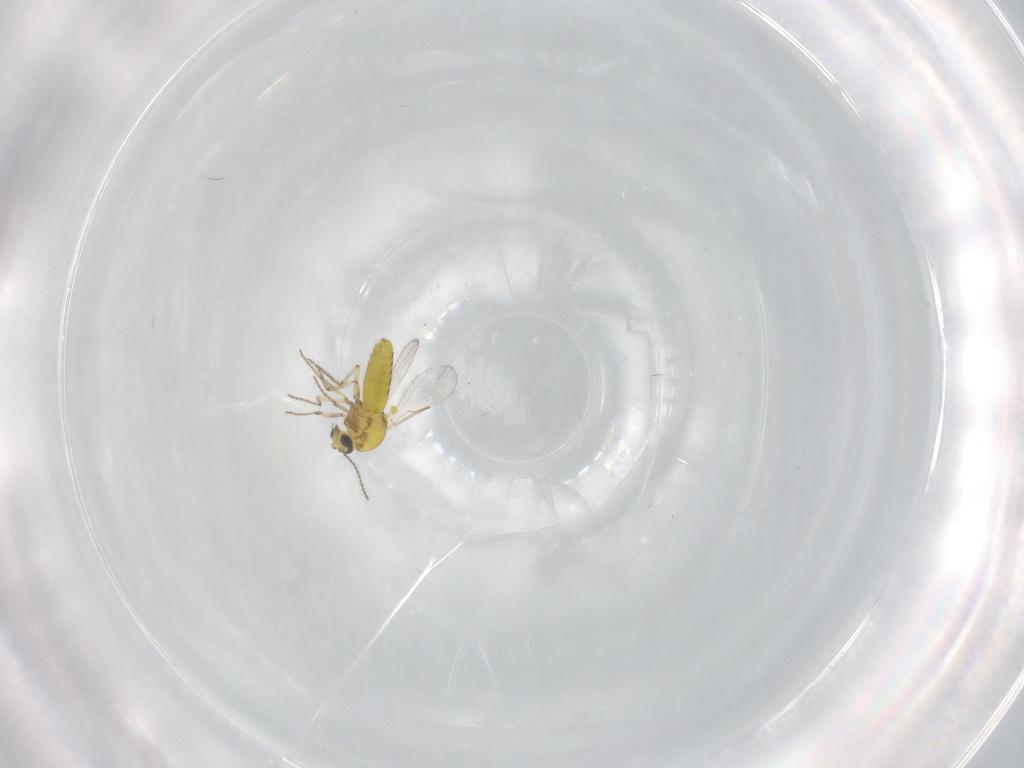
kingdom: Animalia
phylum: Arthropoda
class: Insecta
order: Diptera
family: Ceratopogonidae
